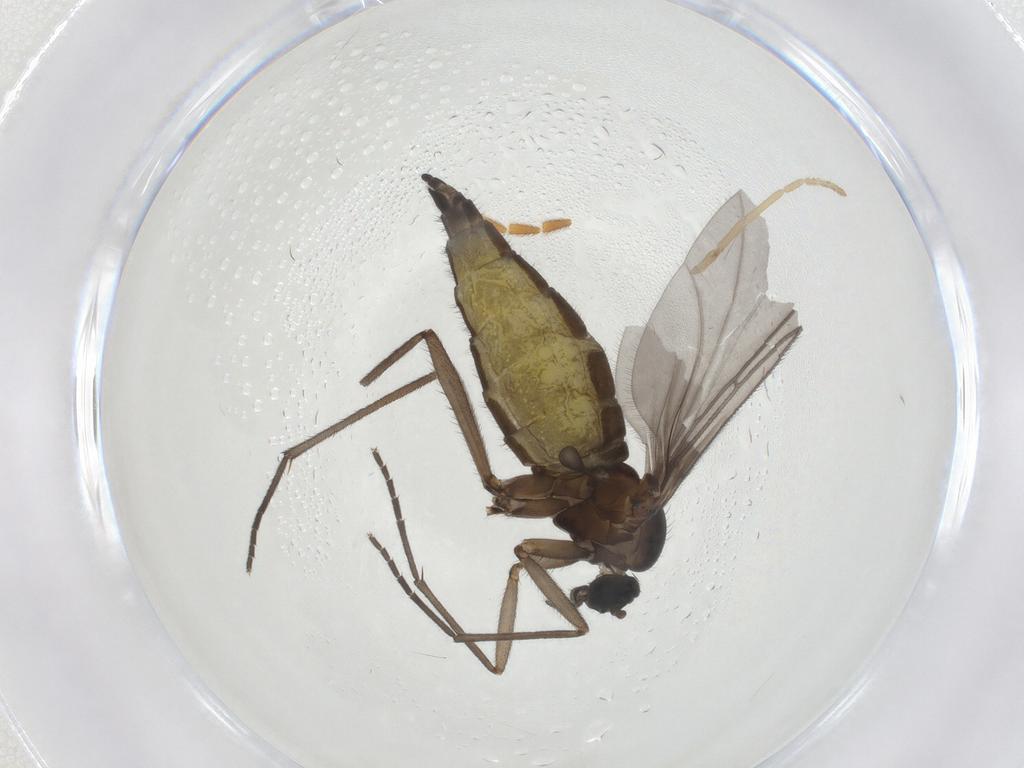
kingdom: Animalia
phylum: Arthropoda
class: Insecta
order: Diptera
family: Sciaridae
